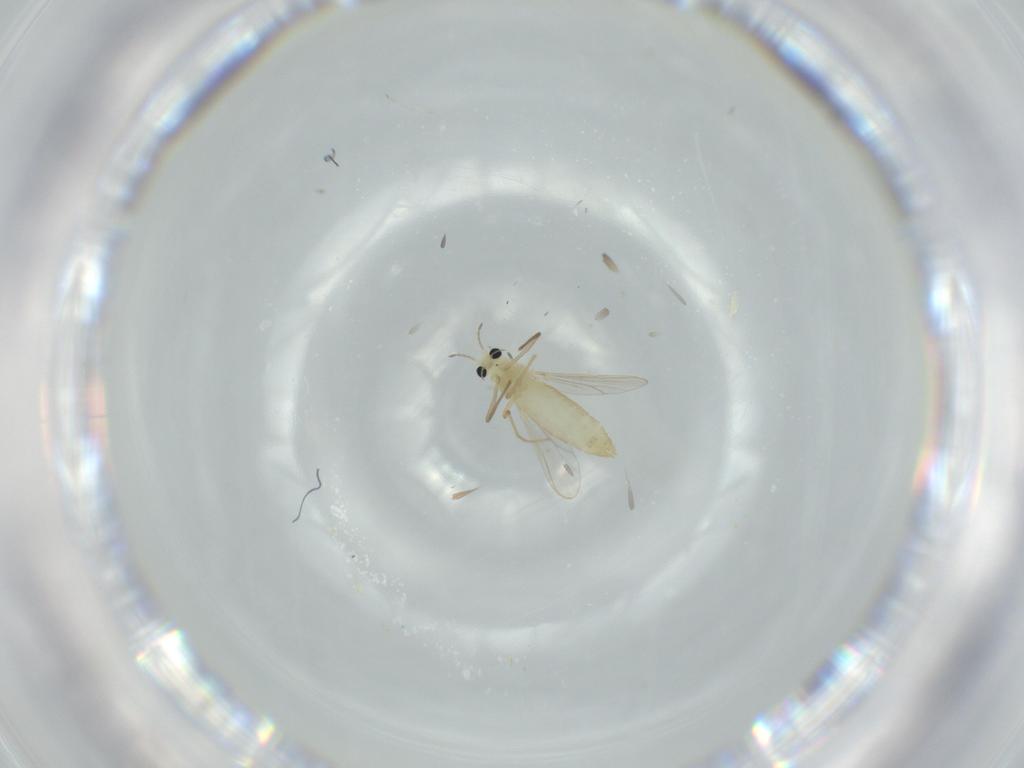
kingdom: Animalia
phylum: Arthropoda
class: Insecta
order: Diptera
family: Chironomidae
